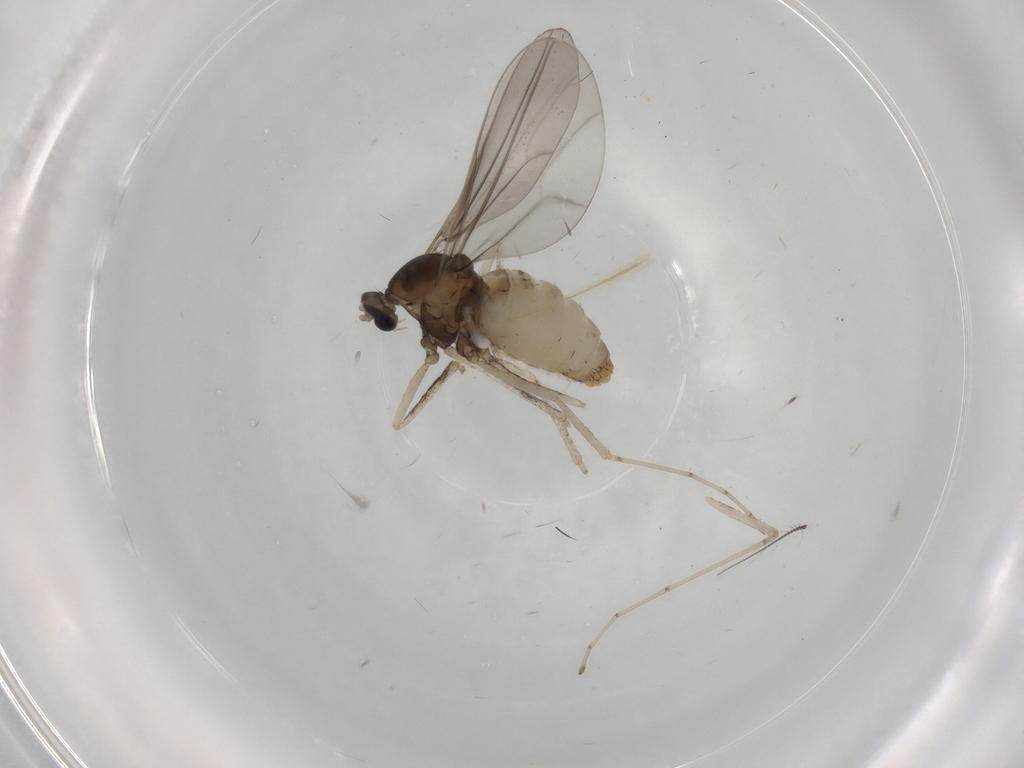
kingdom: Animalia
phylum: Arthropoda
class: Insecta
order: Diptera
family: Cecidomyiidae
